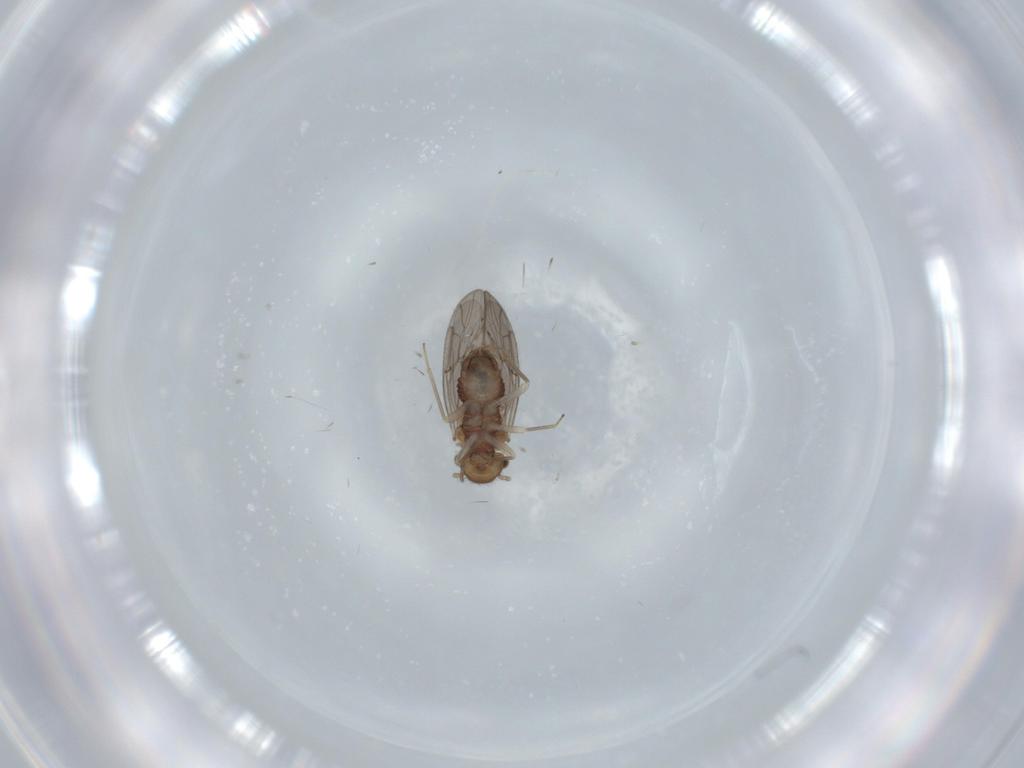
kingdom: Animalia
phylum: Arthropoda
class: Insecta
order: Psocodea
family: Ectopsocidae
